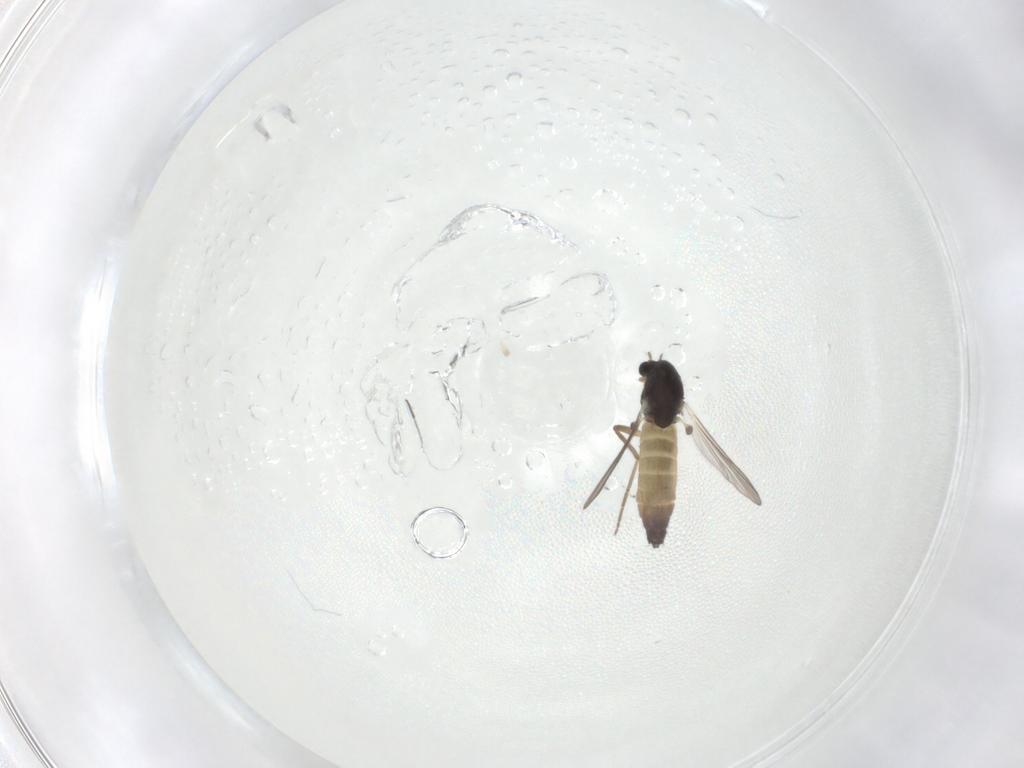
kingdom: Animalia
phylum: Arthropoda
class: Insecta
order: Diptera
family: Chironomidae
